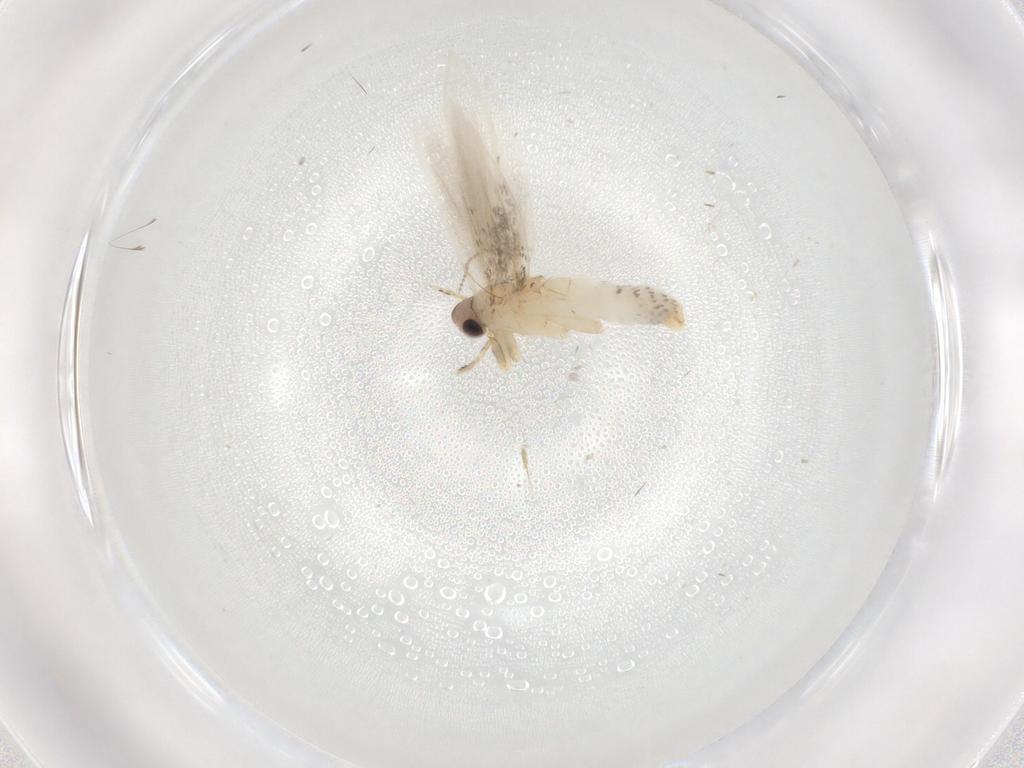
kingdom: Animalia
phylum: Arthropoda
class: Insecta
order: Lepidoptera
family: Tineidae
